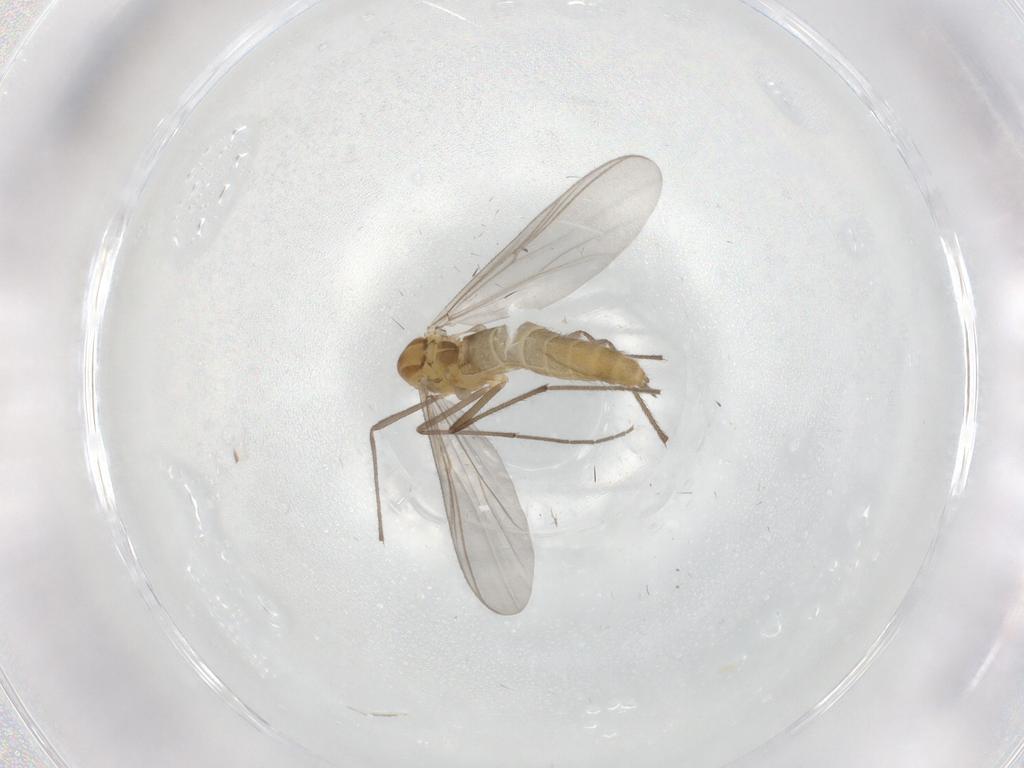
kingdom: Animalia
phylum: Arthropoda
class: Insecta
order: Diptera
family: Chironomidae
